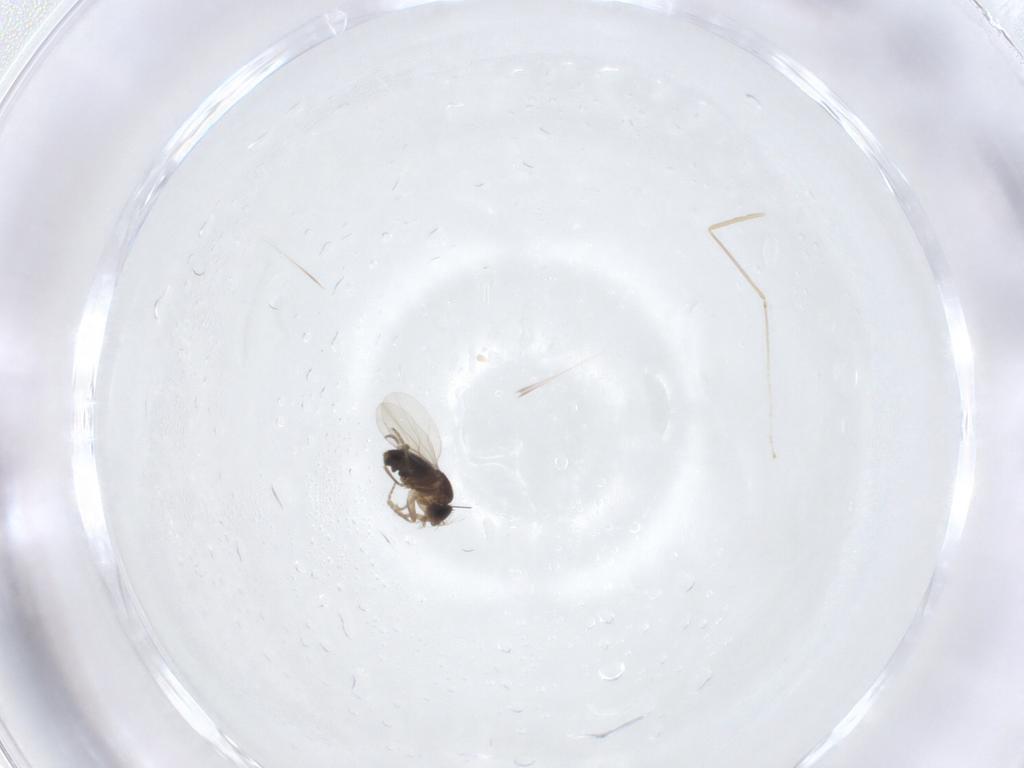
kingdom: Animalia
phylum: Arthropoda
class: Insecta
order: Diptera
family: Phoridae
